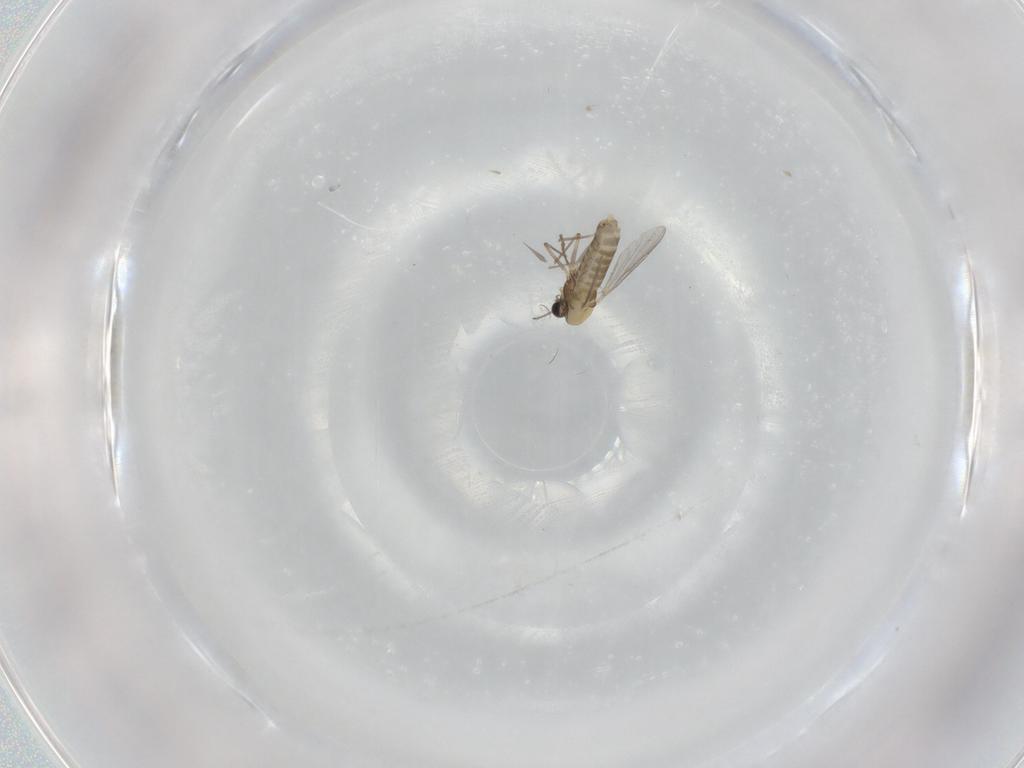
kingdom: Animalia
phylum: Arthropoda
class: Insecta
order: Diptera
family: Chironomidae
